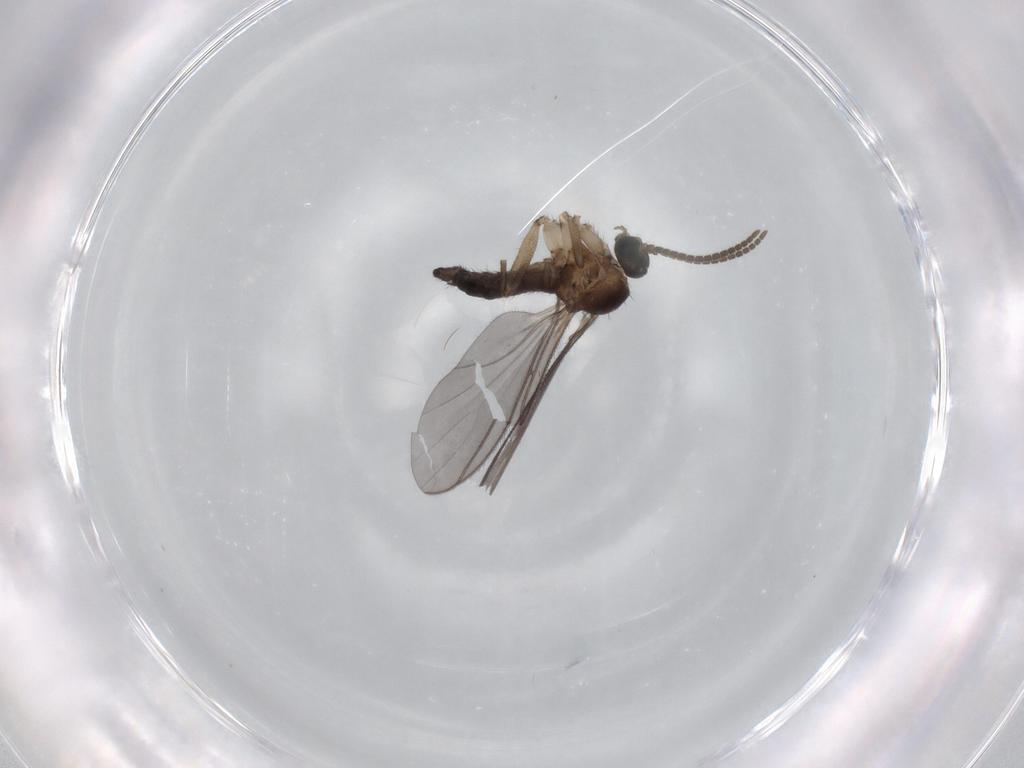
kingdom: Animalia
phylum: Arthropoda
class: Insecta
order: Diptera
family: Sciaridae
